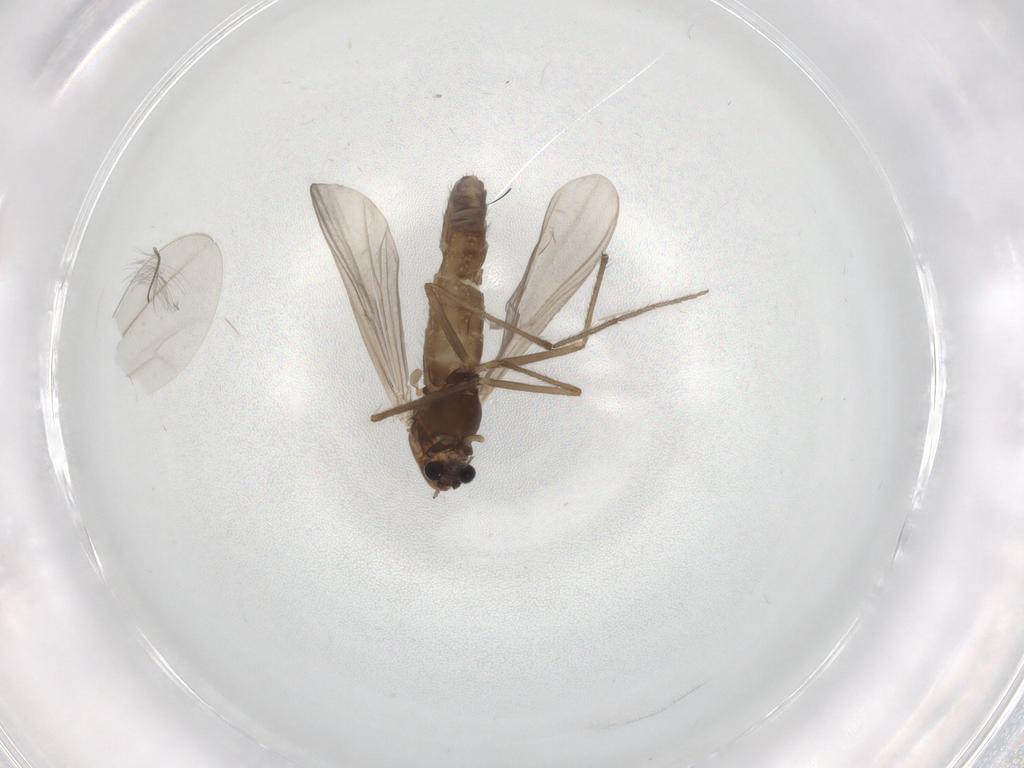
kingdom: Animalia
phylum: Arthropoda
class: Insecta
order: Diptera
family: Chironomidae
